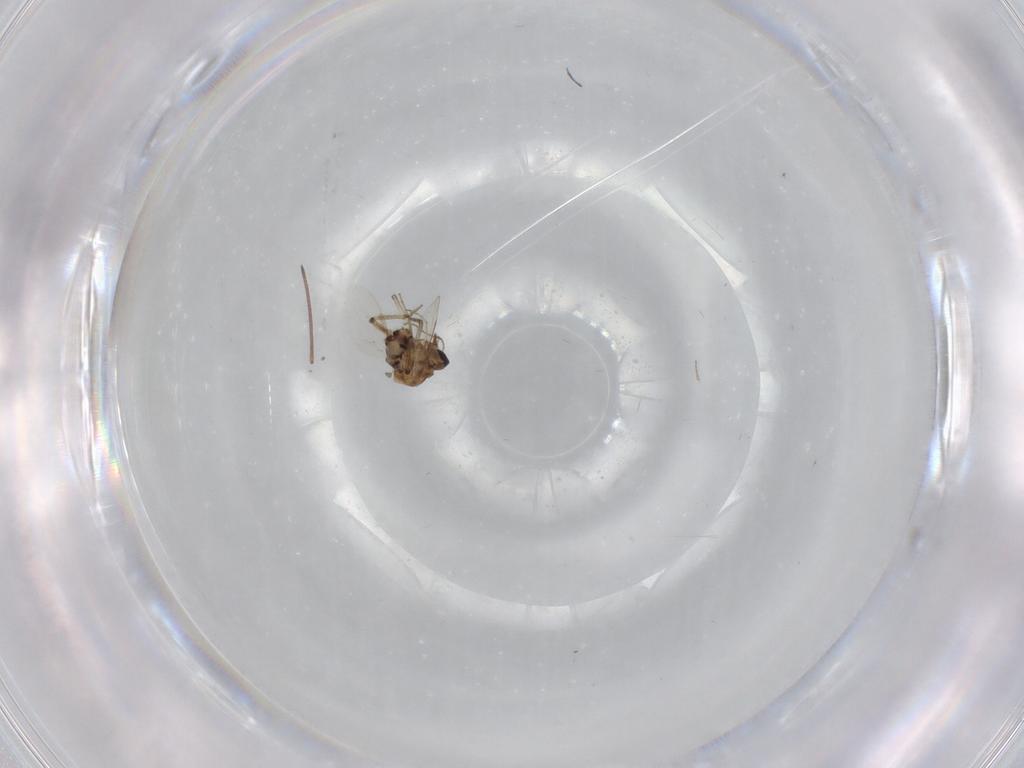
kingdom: Animalia
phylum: Arthropoda
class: Insecta
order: Diptera
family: Ceratopogonidae
